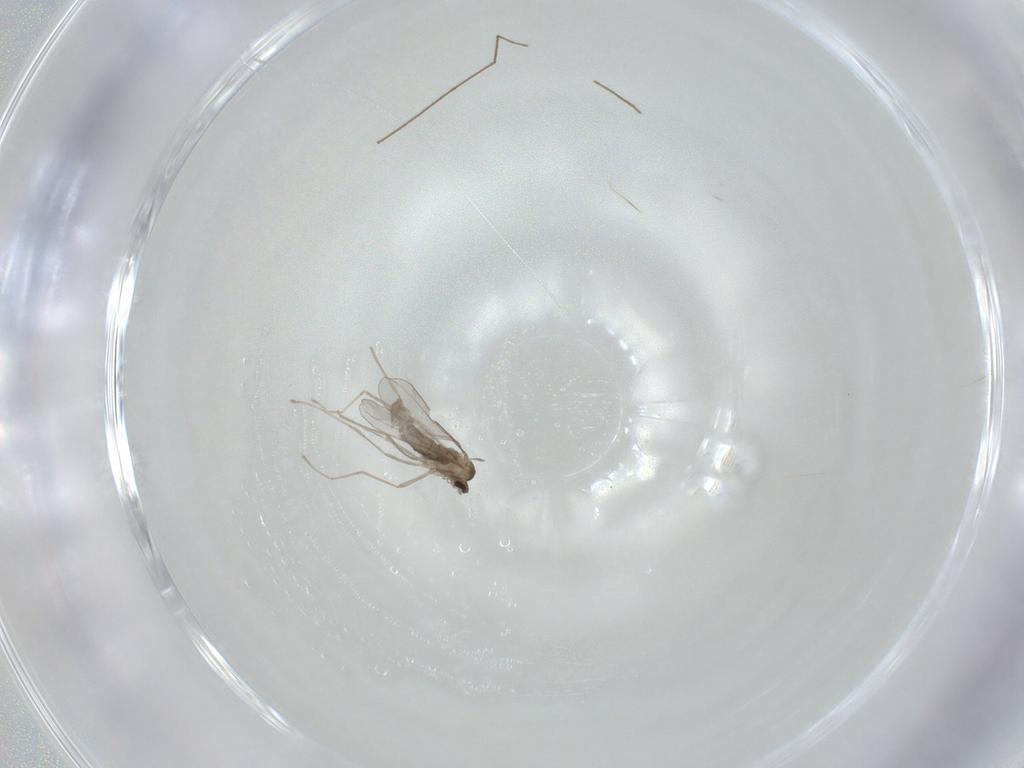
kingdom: Animalia
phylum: Arthropoda
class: Insecta
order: Diptera
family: Cecidomyiidae
